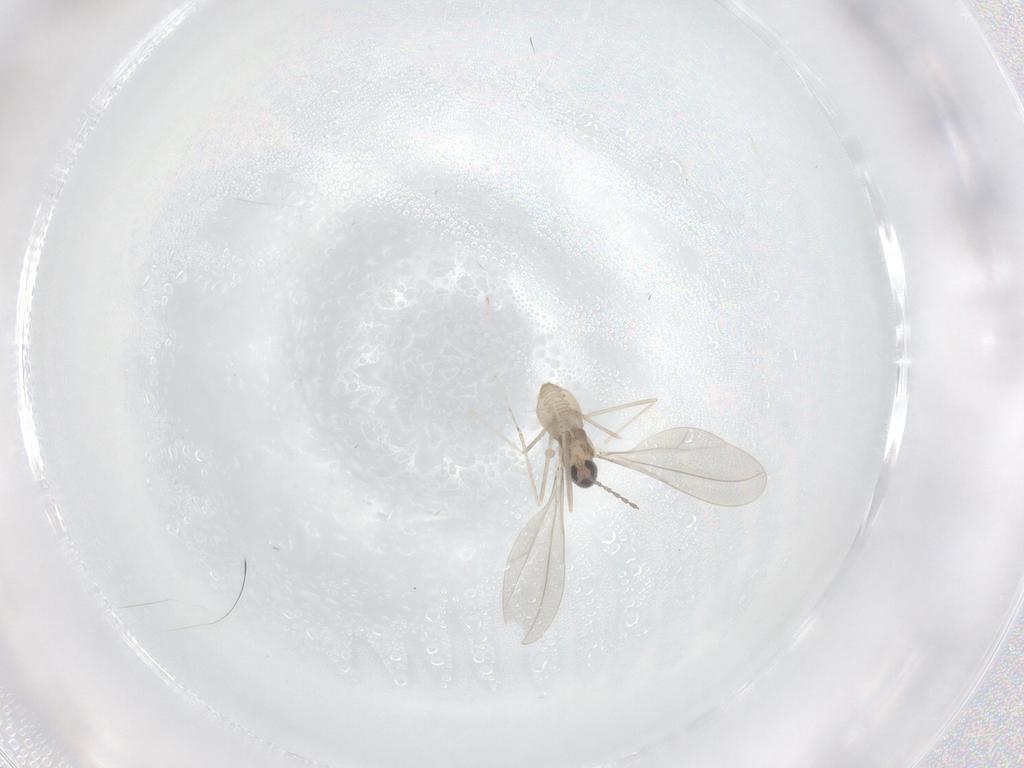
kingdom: Animalia
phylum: Arthropoda
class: Insecta
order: Diptera
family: Cecidomyiidae
